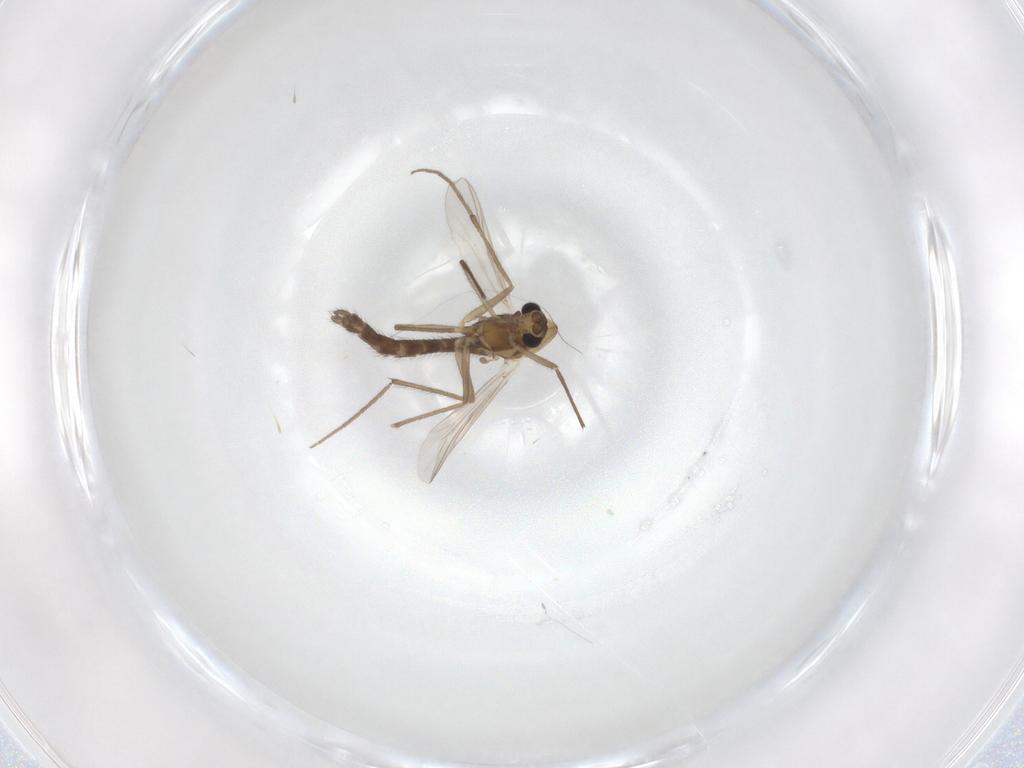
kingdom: Animalia
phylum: Arthropoda
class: Insecta
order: Diptera
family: Chironomidae
